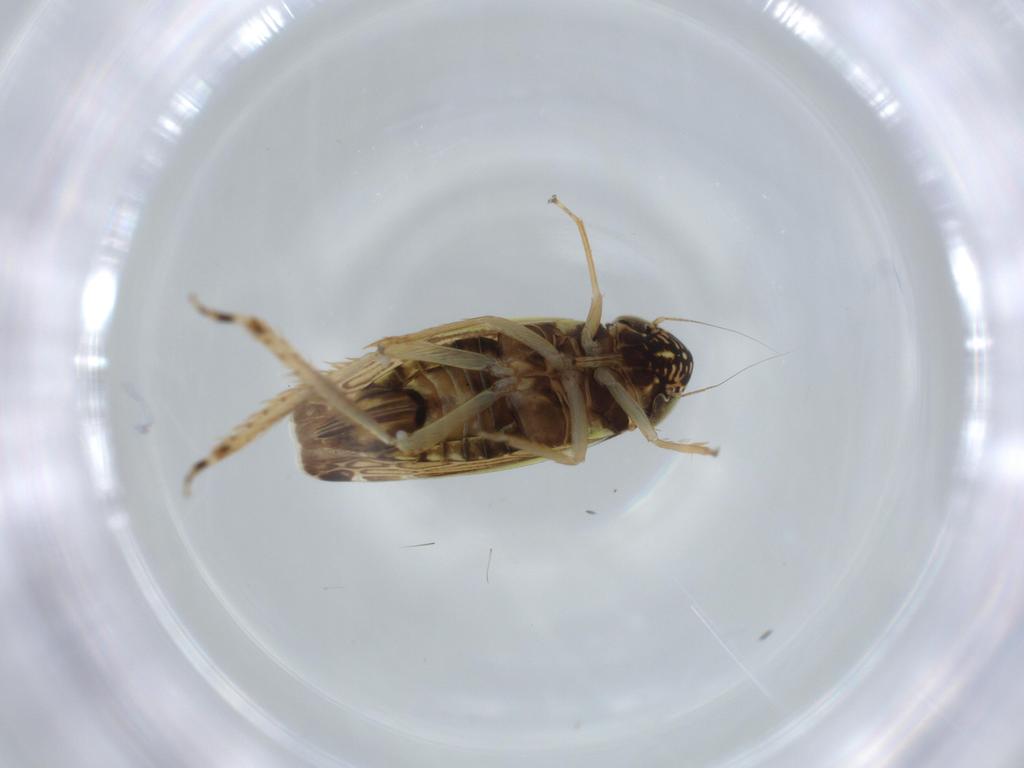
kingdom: Animalia
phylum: Arthropoda
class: Insecta
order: Hemiptera
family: Cicadellidae
